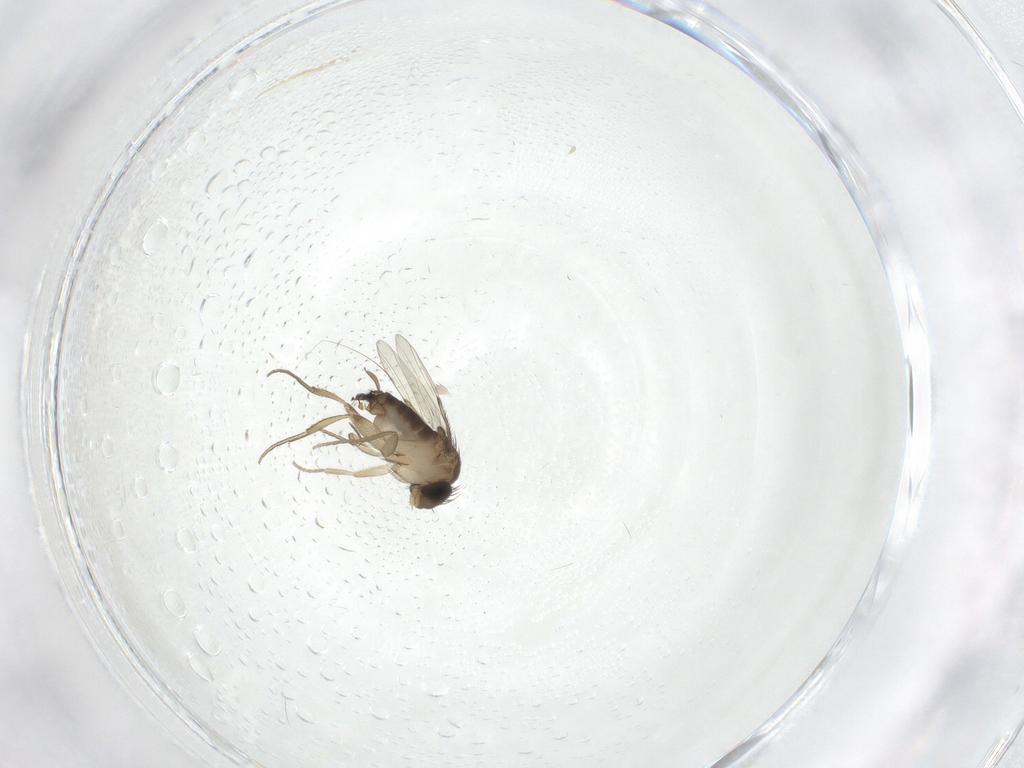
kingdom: Animalia
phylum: Arthropoda
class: Insecta
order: Diptera
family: Cecidomyiidae
